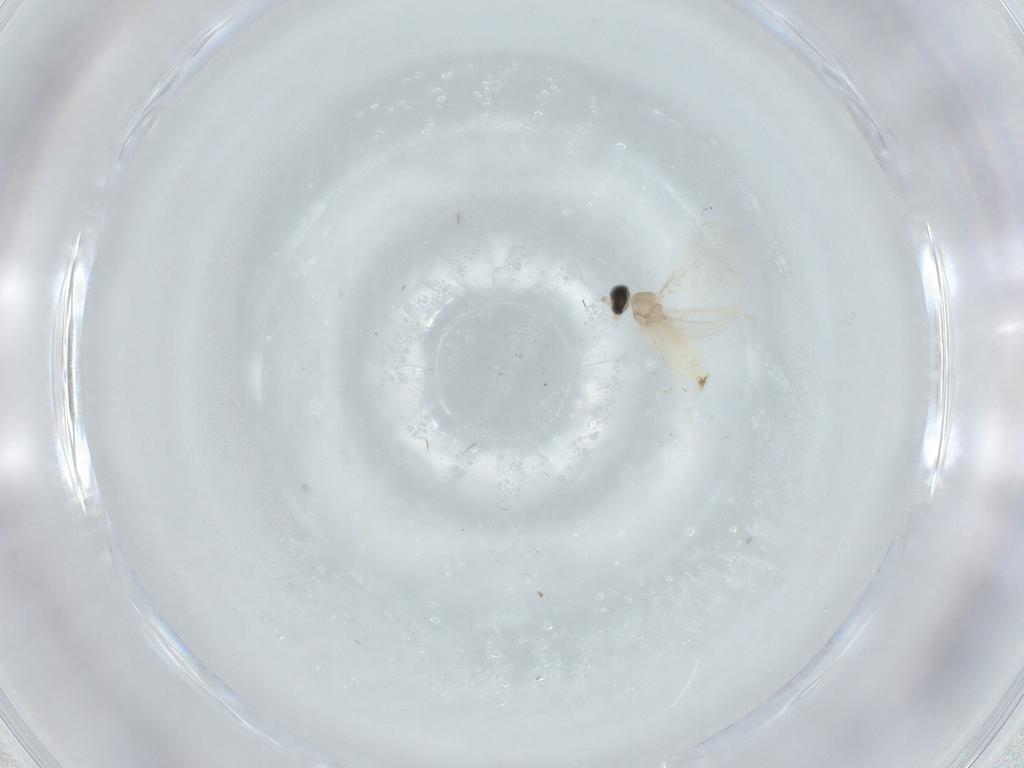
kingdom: Animalia
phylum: Arthropoda
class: Insecta
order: Diptera
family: Cecidomyiidae
